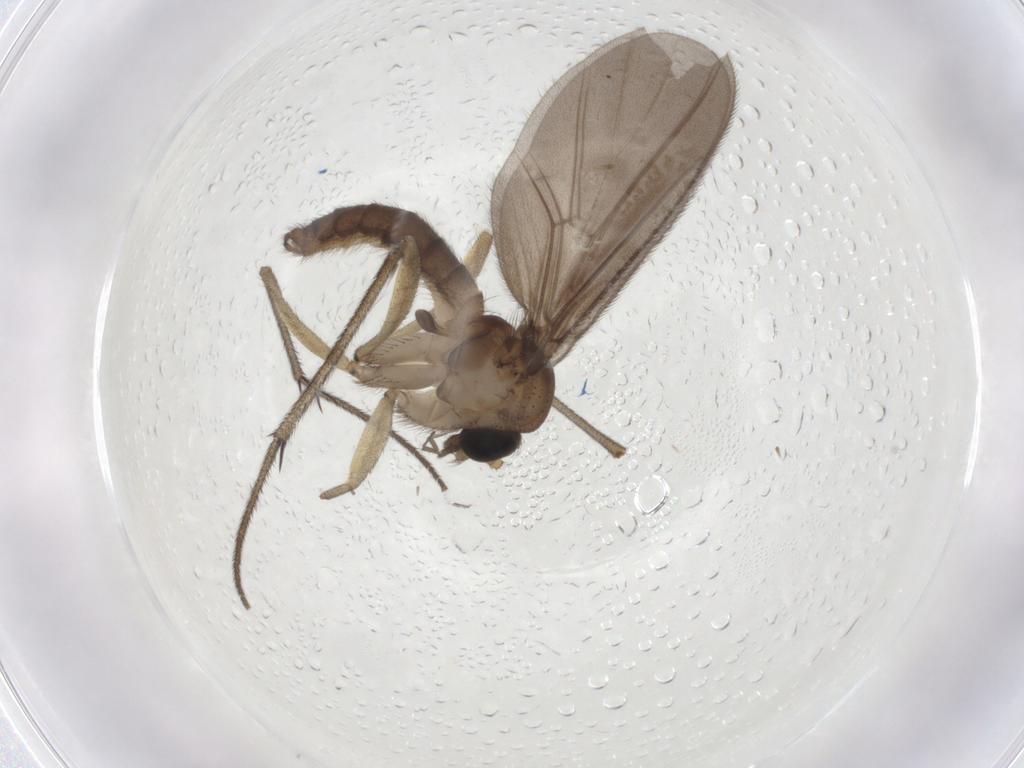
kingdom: Animalia
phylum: Arthropoda
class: Insecta
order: Diptera
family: Diadocidiidae
